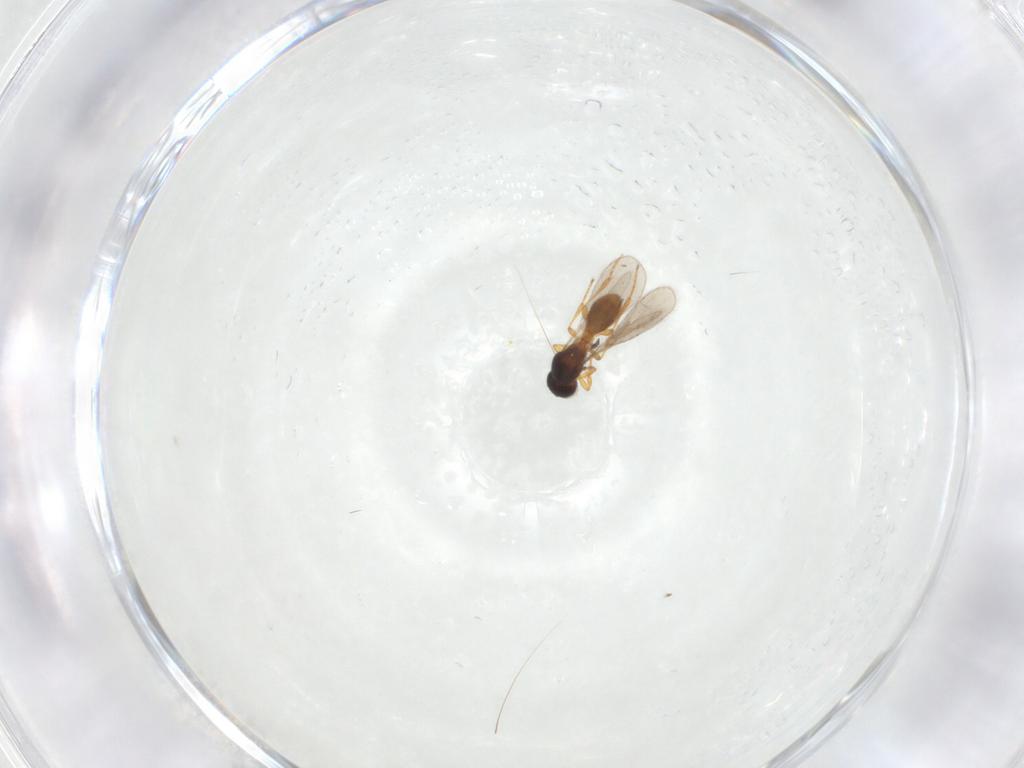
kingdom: Animalia
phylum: Arthropoda
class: Insecta
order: Hymenoptera
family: Platygastridae
